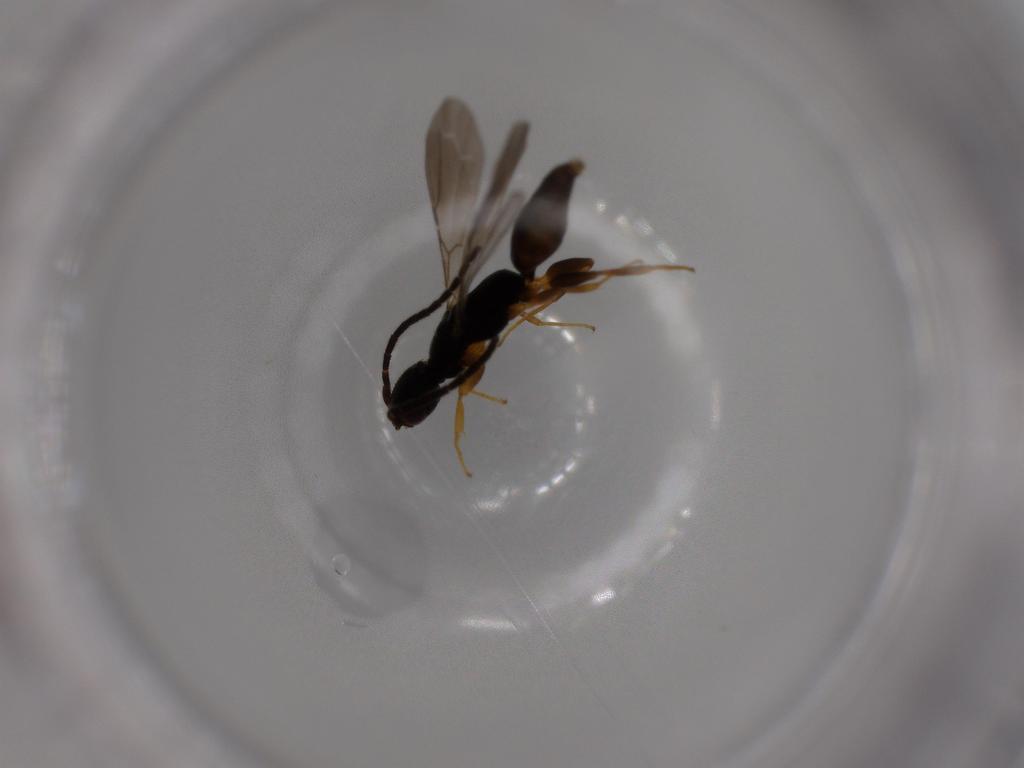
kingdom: Animalia
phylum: Arthropoda
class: Insecta
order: Hymenoptera
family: Bethylidae
